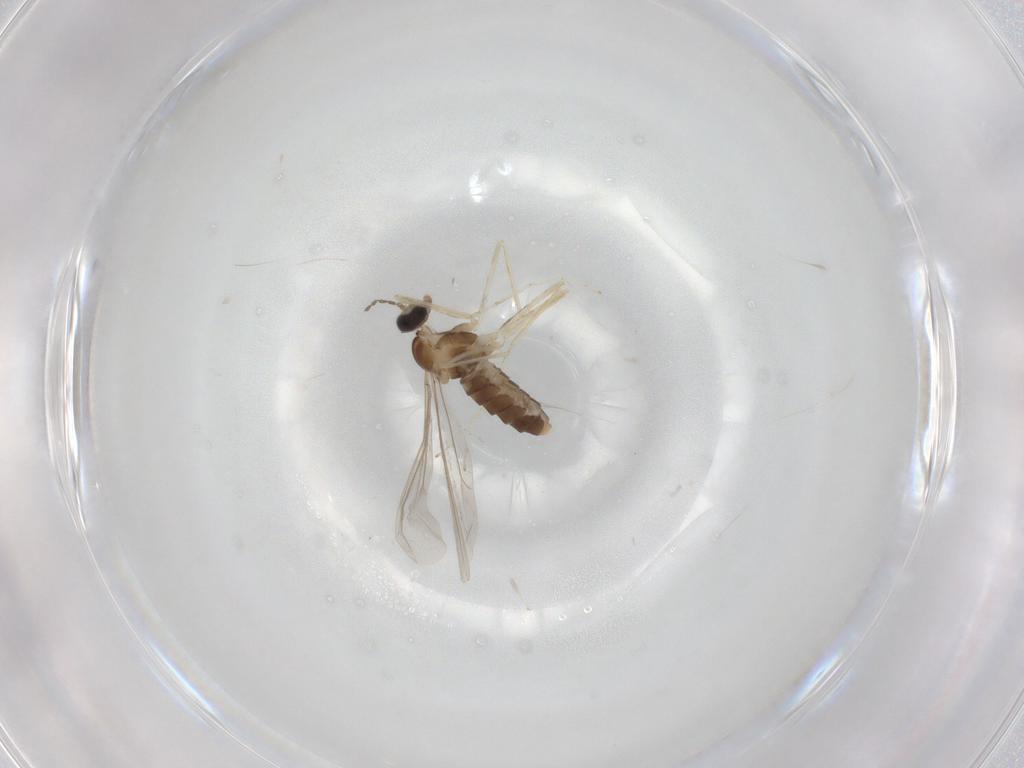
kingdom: Animalia
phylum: Arthropoda
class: Insecta
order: Diptera
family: Cecidomyiidae
